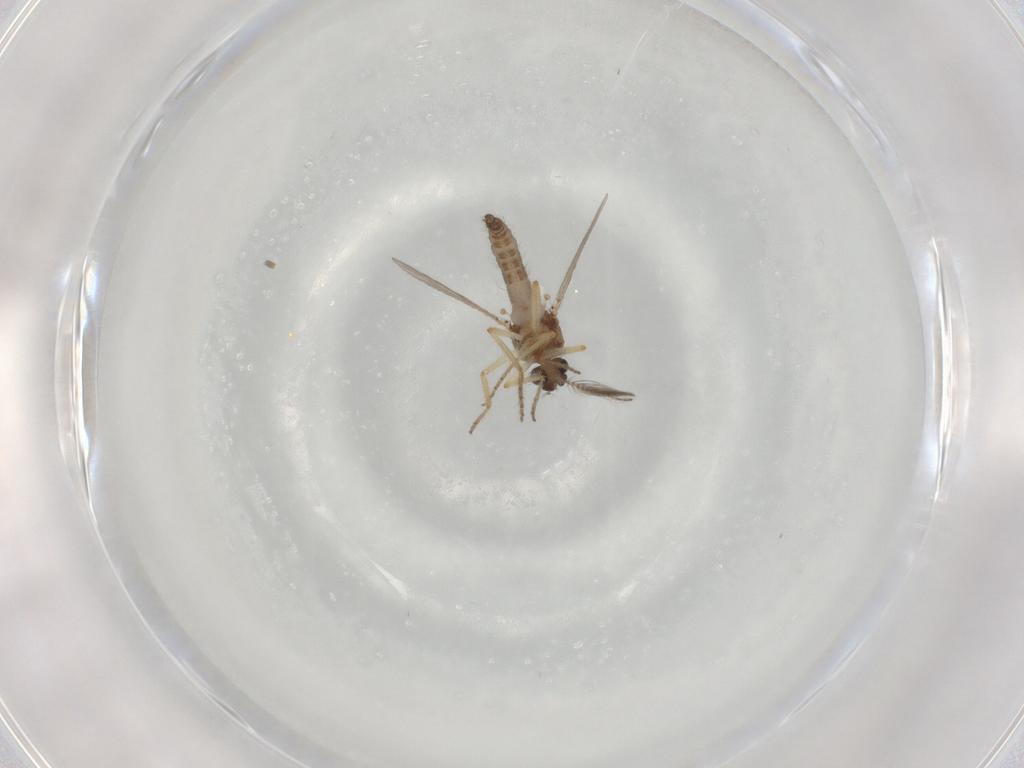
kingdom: Animalia
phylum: Arthropoda
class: Insecta
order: Diptera
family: Ceratopogonidae
